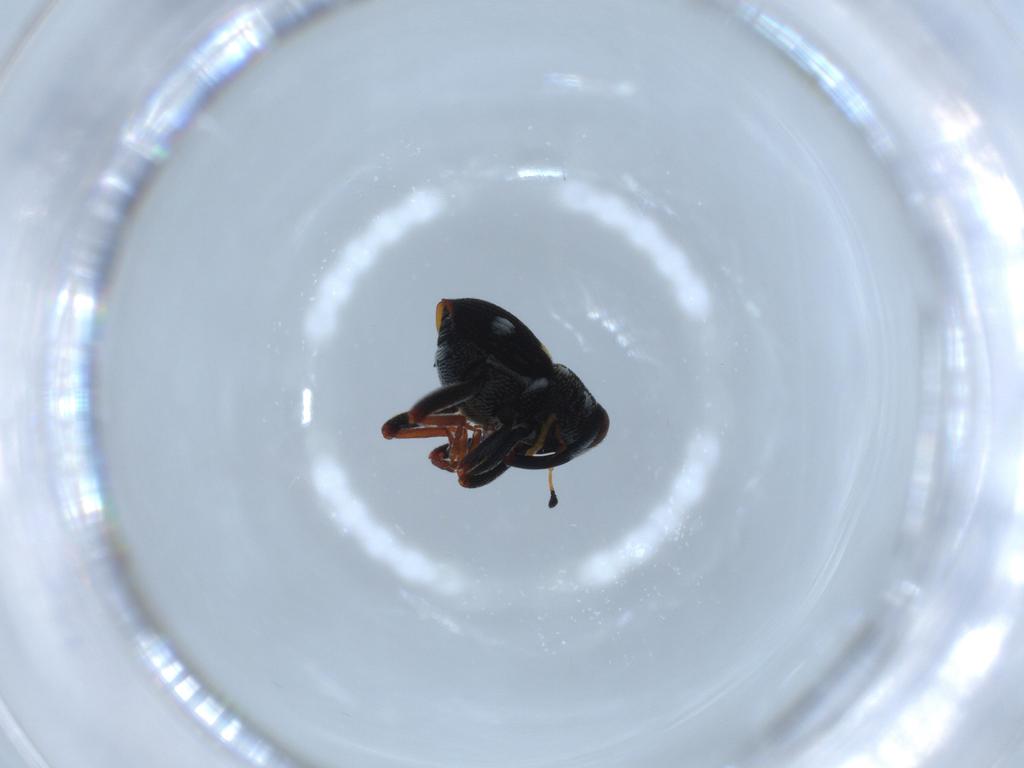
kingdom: Animalia
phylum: Arthropoda
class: Insecta
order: Coleoptera
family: Curculionidae
